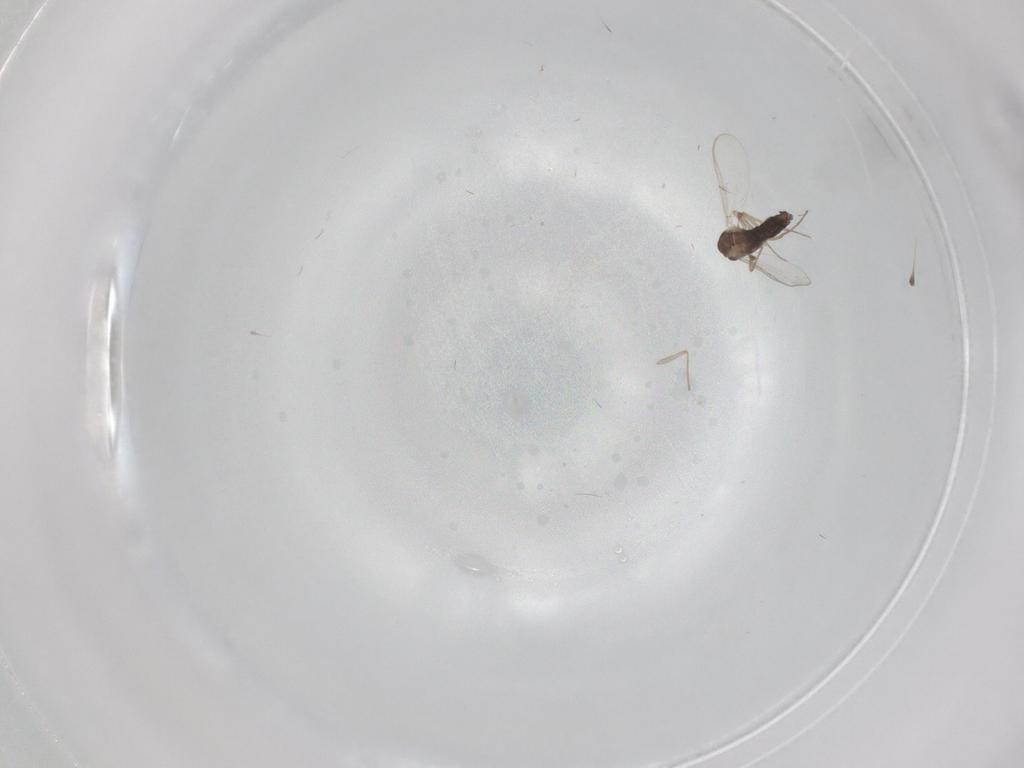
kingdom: Animalia
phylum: Arthropoda
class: Insecta
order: Diptera
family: Chironomidae
